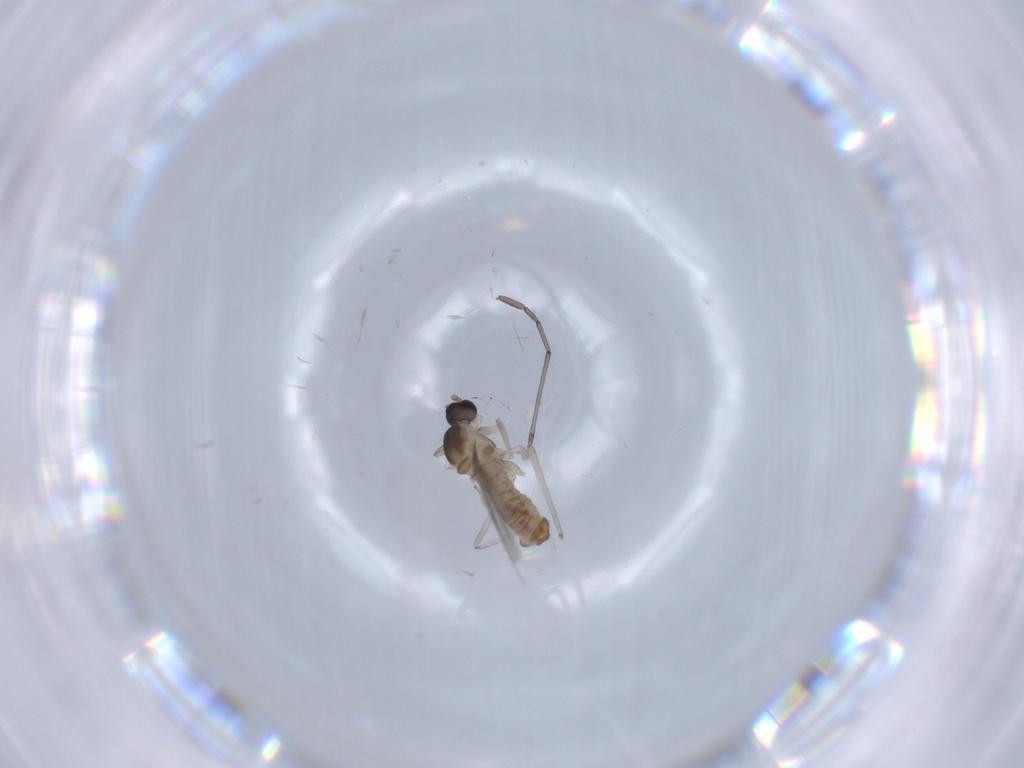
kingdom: Animalia
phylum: Arthropoda
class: Insecta
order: Diptera
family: Cecidomyiidae
